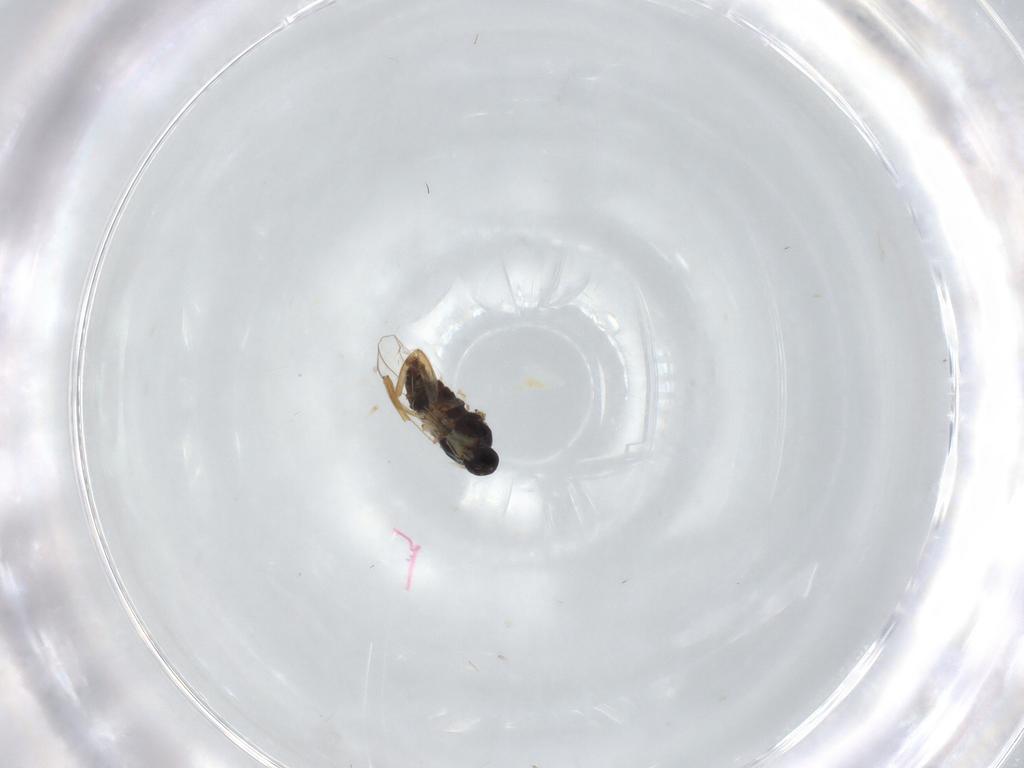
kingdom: Animalia
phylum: Arthropoda
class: Insecta
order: Diptera
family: Hybotidae
